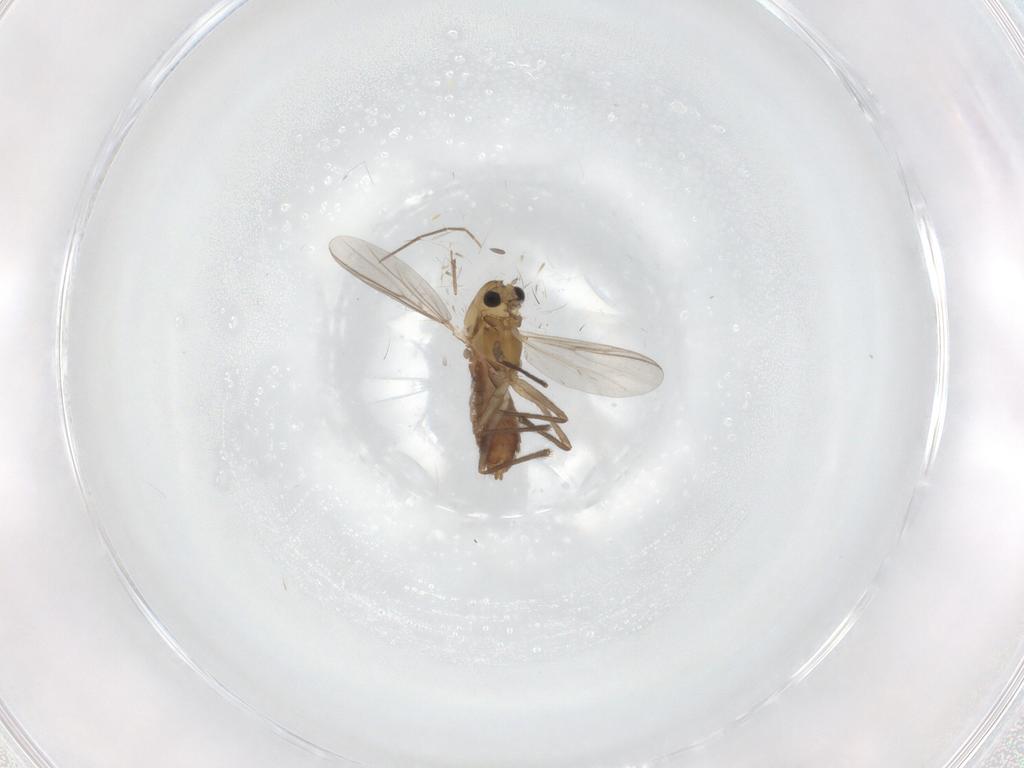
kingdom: Animalia
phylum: Arthropoda
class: Insecta
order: Diptera
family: Chironomidae
